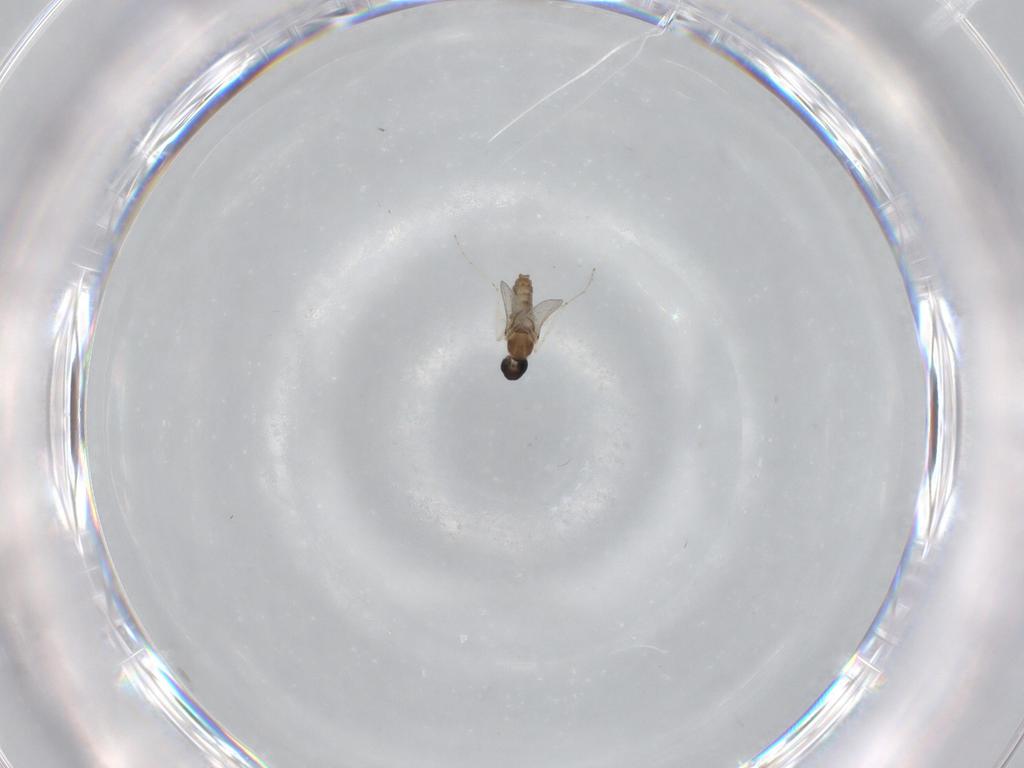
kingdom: Animalia
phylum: Arthropoda
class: Insecta
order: Diptera
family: Cecidomyiidae
